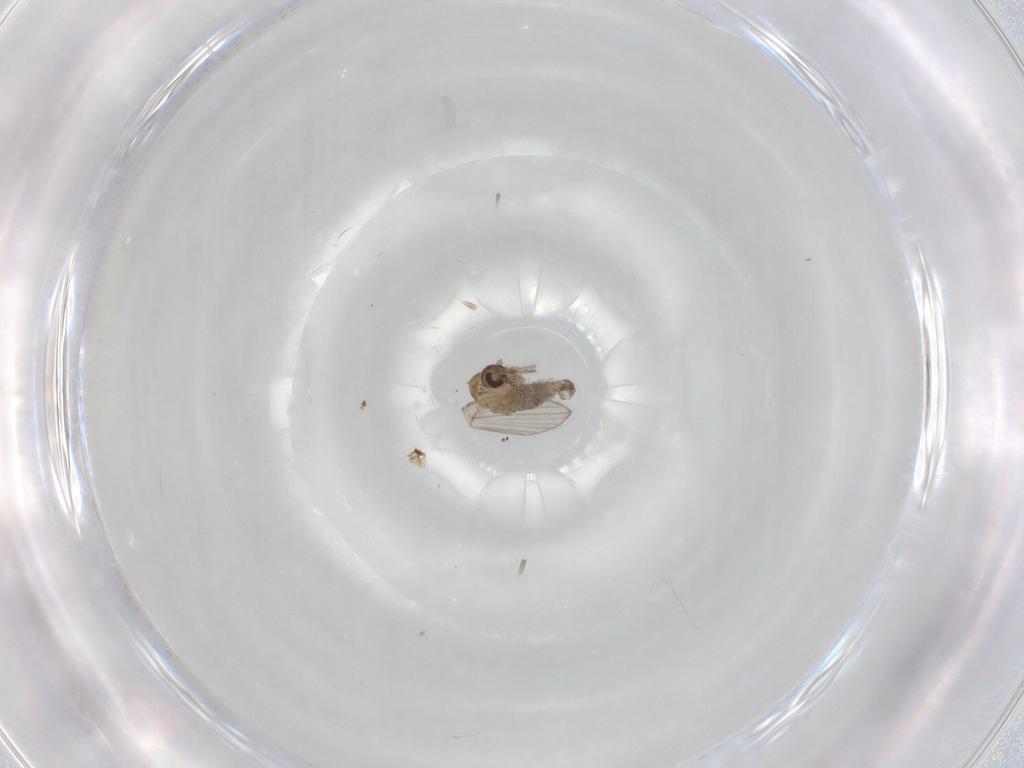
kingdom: Animalia
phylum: Arthropoda
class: Insecta
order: Diptera
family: Psychodidae
